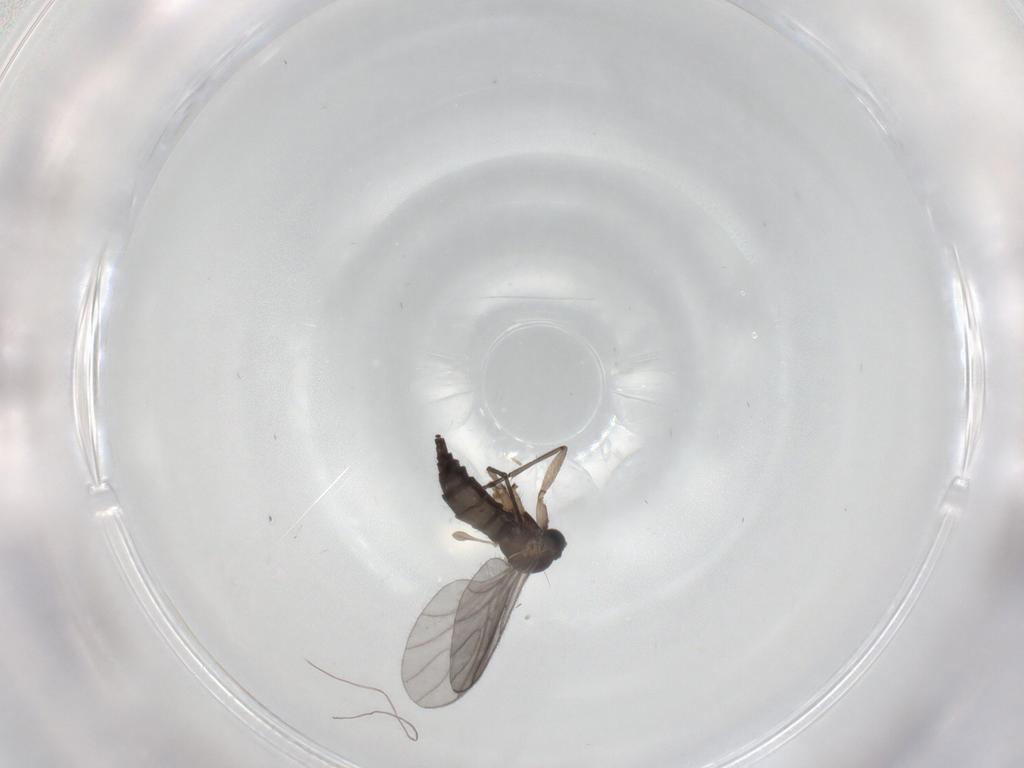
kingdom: Animalia
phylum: Arthropoda
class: Insecta
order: Diptera
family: Sciaridae
